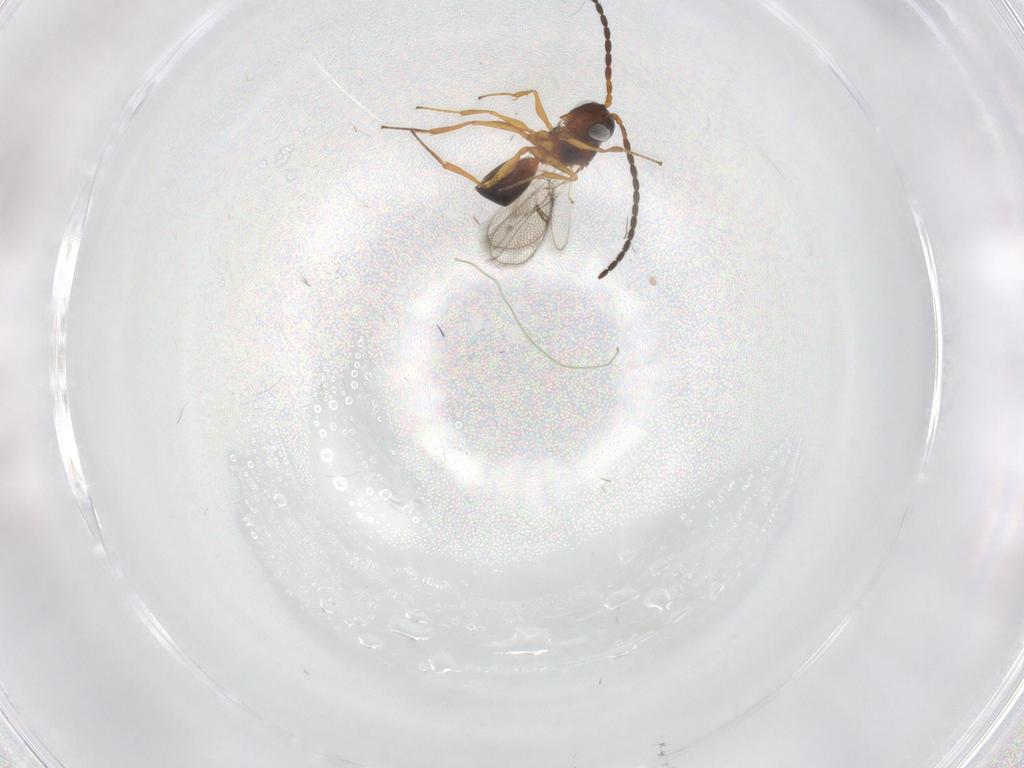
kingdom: Animalia
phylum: Arthropoda
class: Insecta
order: Hymenoptera
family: Figitidae
